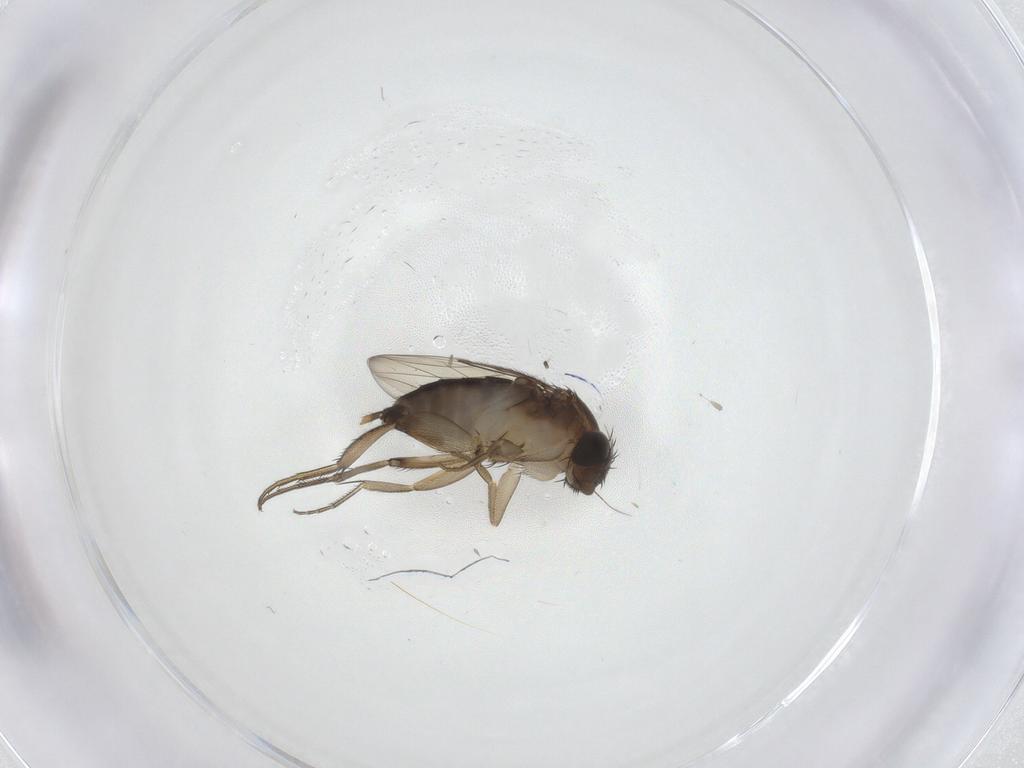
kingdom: Animalia
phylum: Arthropoda
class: Insecta
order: Diptera
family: Phoridae
